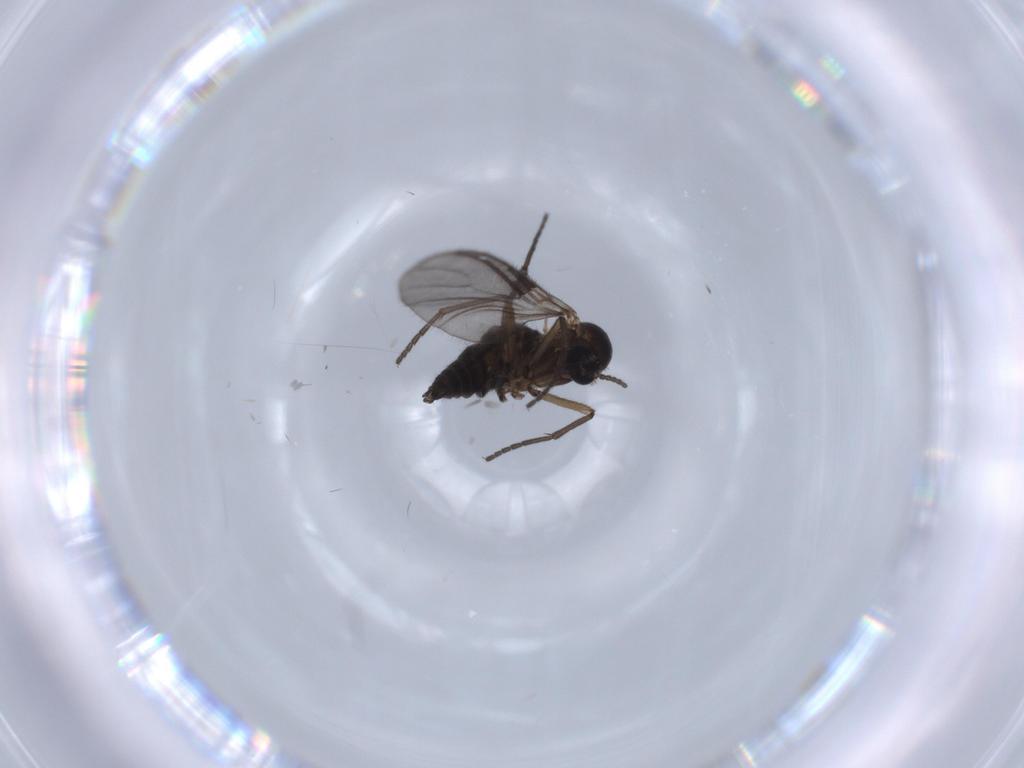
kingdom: Animalia
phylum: Arthropoda
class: Insecta
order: Diptera
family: Sciaridae
